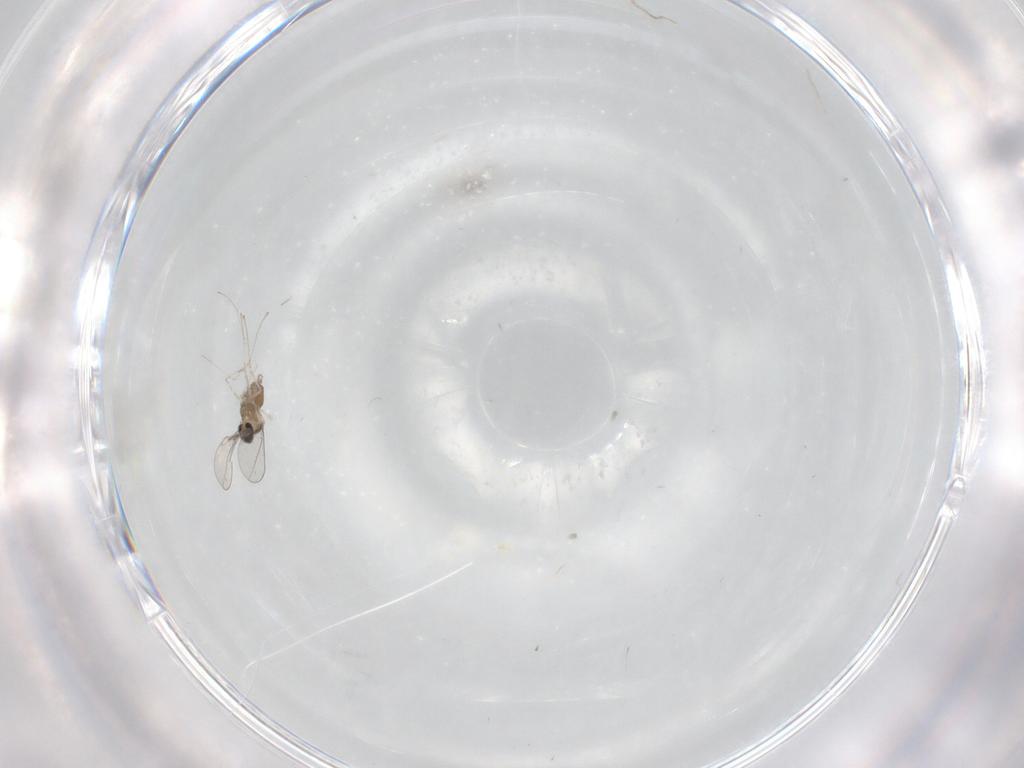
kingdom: Animalia
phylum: Arthropoda
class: Insecta
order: Diptera
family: Cecidomyiidae
